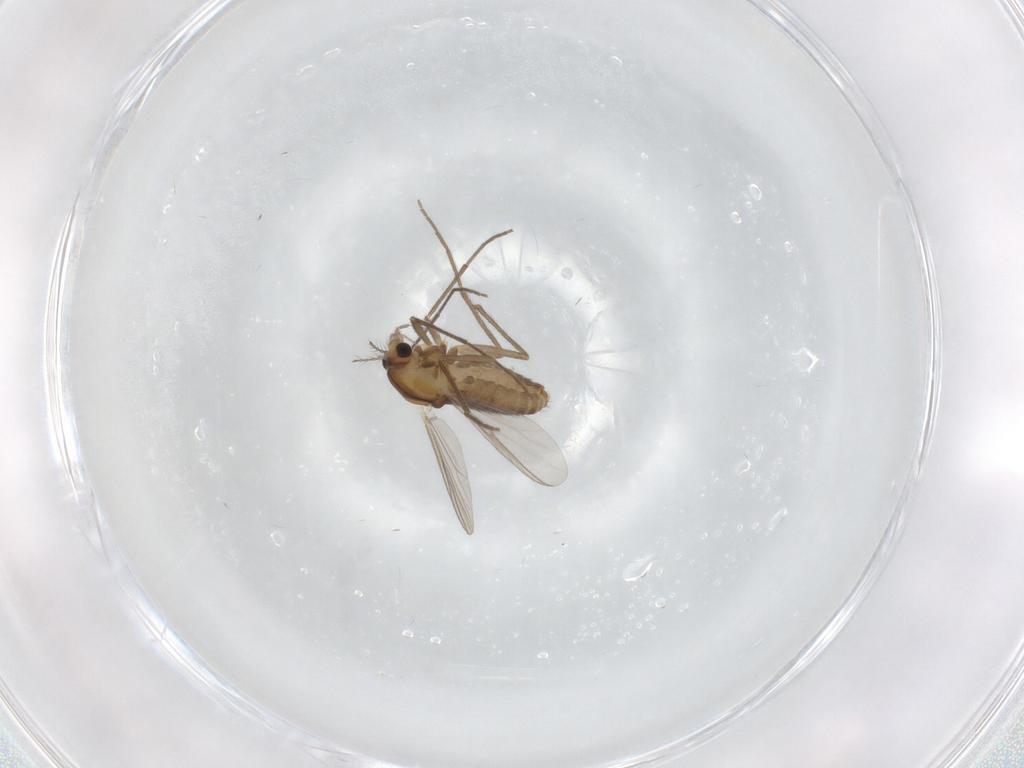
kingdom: Animalia
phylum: Arthropoda
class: Insecta
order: Diptera
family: Chironomidae
